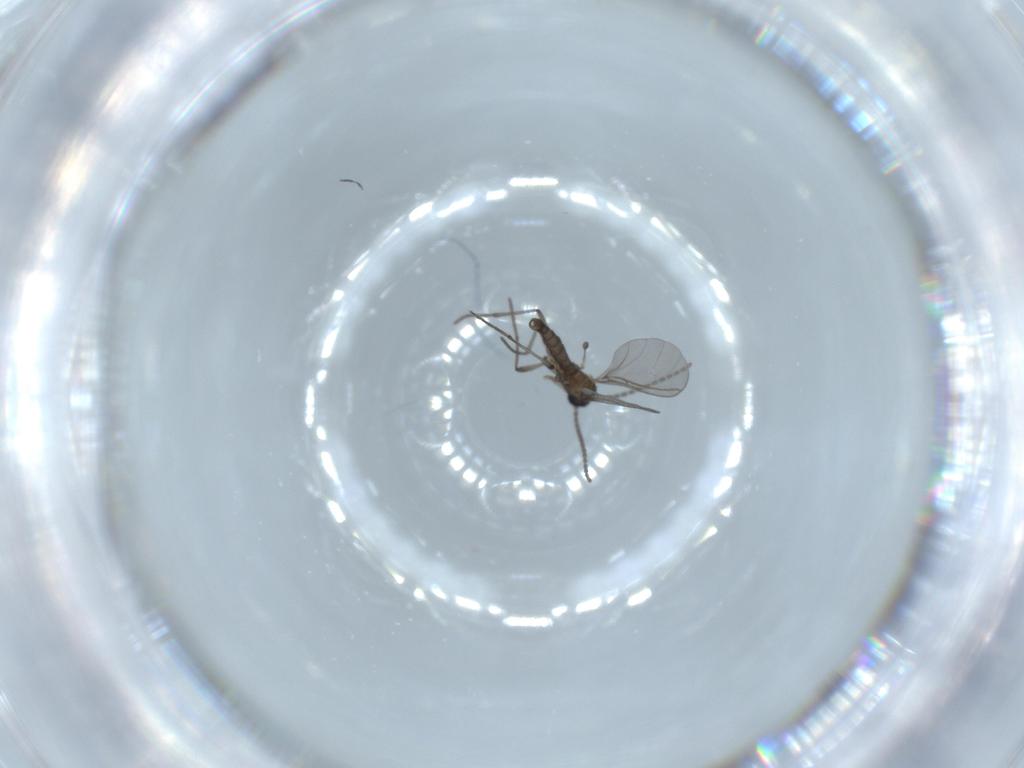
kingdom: Animalia
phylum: Arthropoda
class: Insecta
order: Diptera
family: Sciaridae
